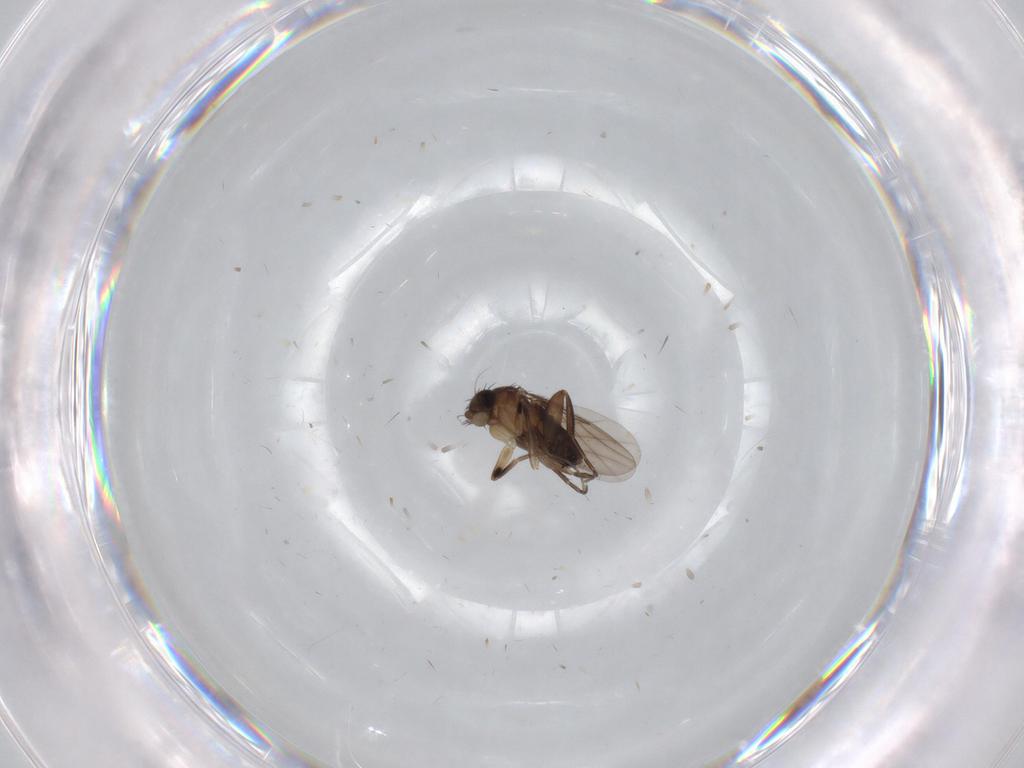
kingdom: Animalia
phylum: Arthropoda
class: Insecta
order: Diptera
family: Phoridae
